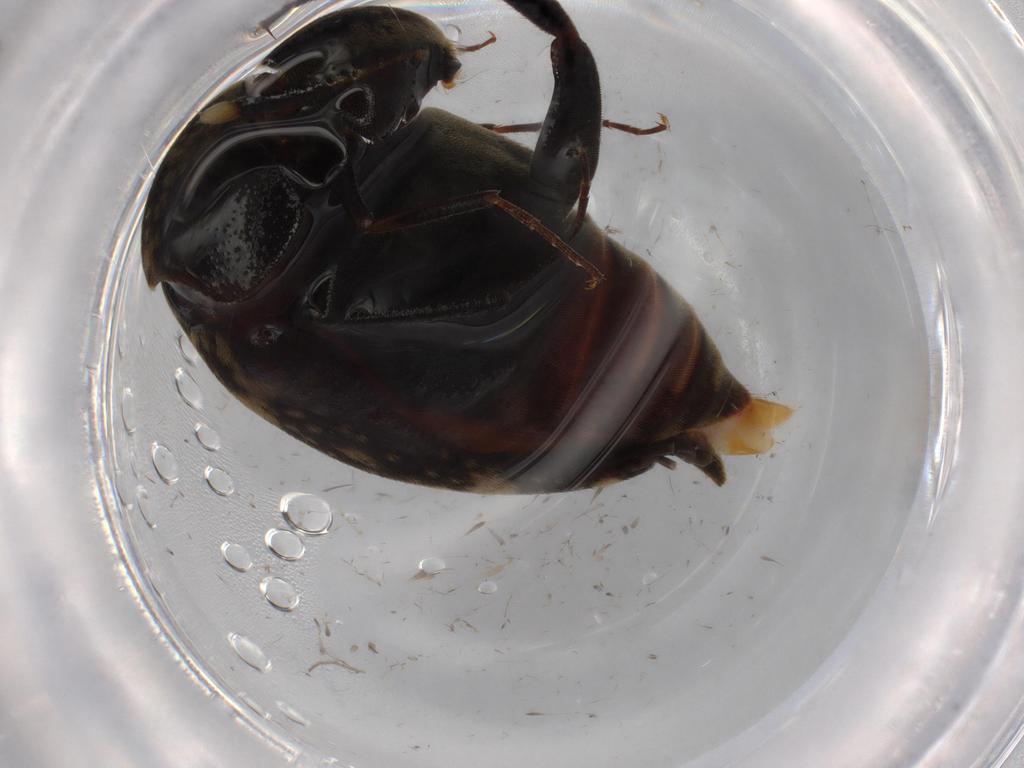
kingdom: Animalia
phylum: Arthropoda
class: Insecta
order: Coleoptera
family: Mordellidae
